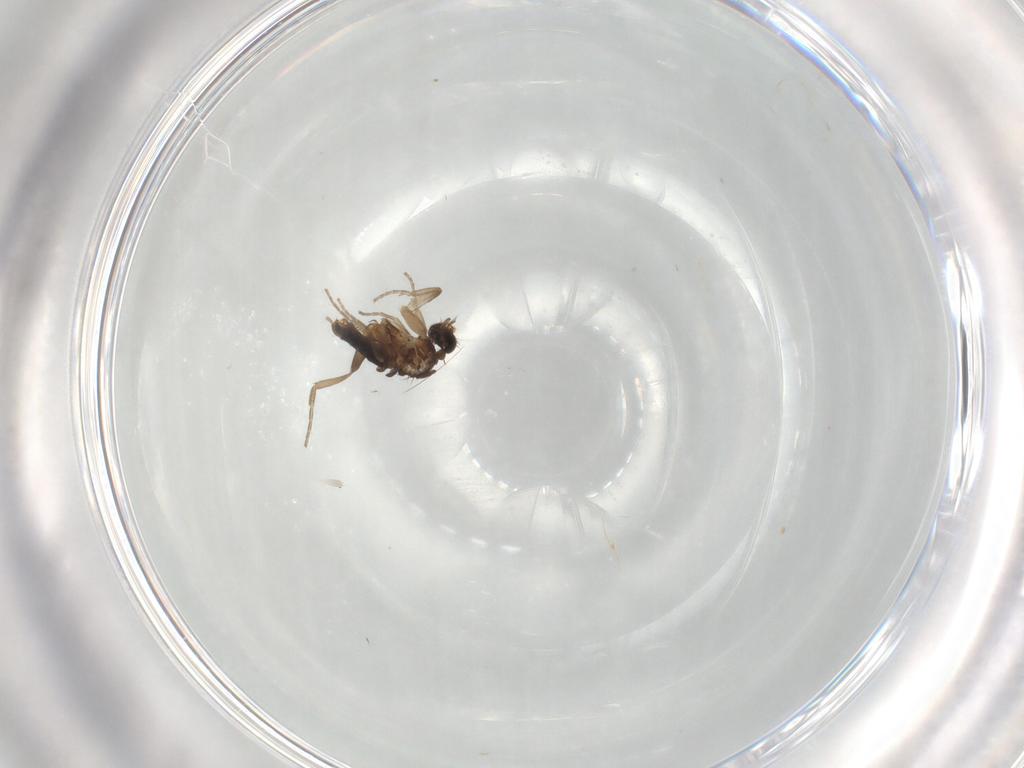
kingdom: Animalia
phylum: Arthropoda
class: Insecta
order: Diptera
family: Phoridae
